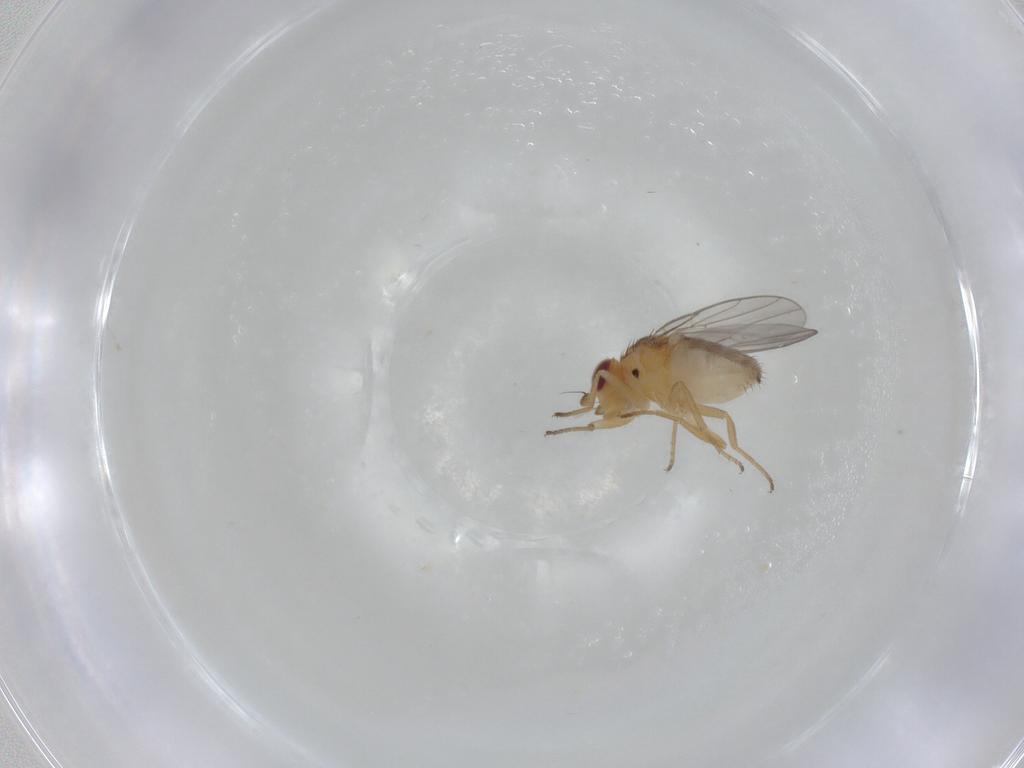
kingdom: Animalia
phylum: Arthropoda
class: Insecta
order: Diptera
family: Chloropidae
